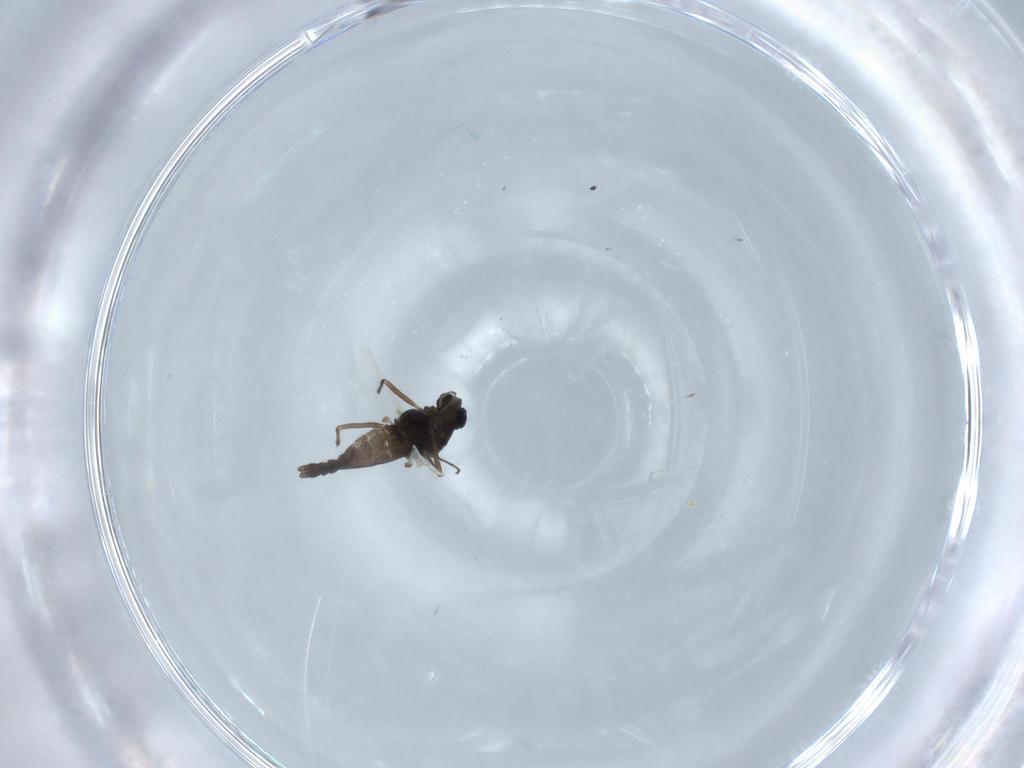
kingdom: Animalia
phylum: Arthropoda
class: Insecta
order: Diptera
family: Chironomidae
